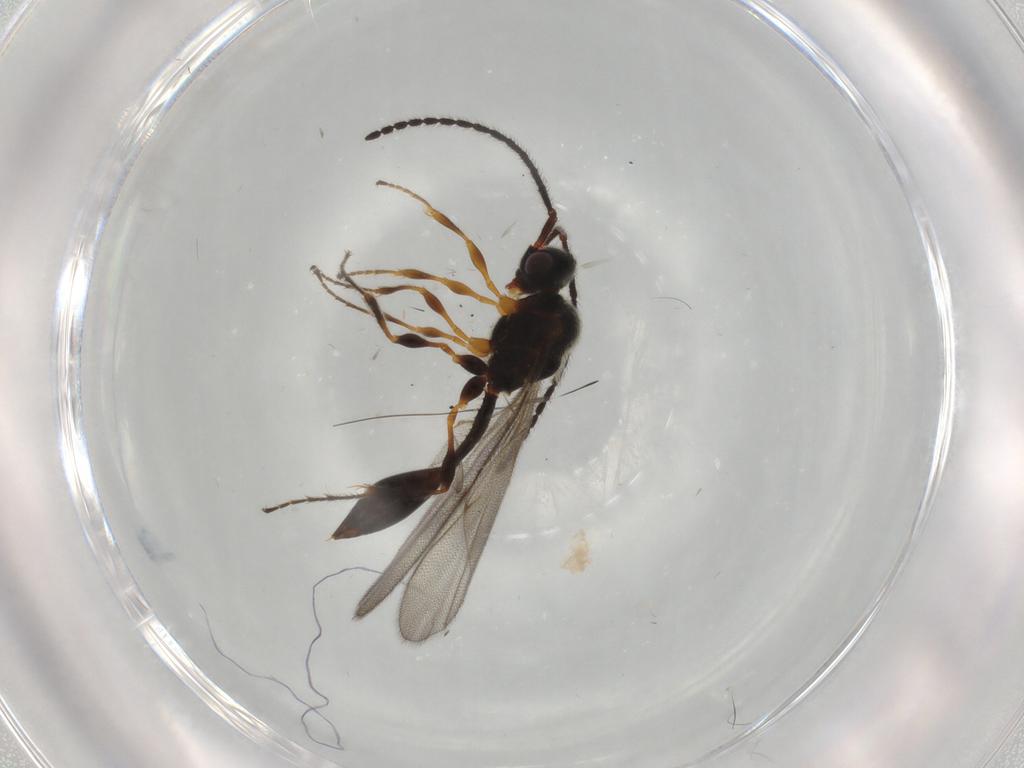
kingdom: Animalia
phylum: Arthropoda
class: Insecta
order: Hymenoptera
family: Diapriidae
